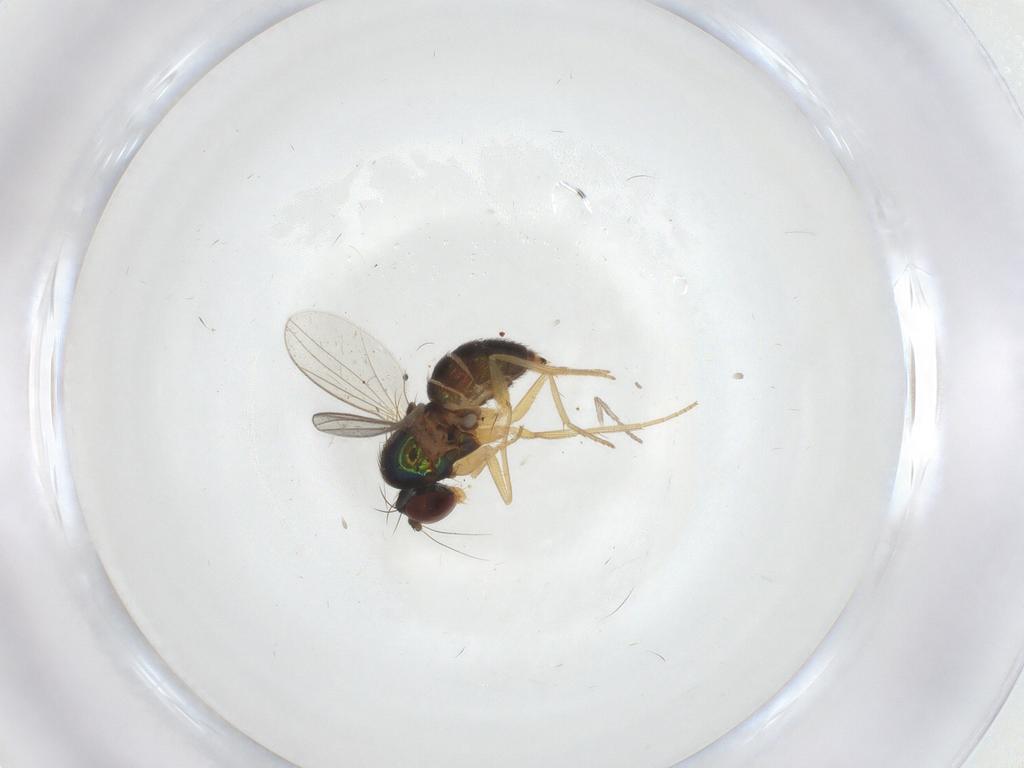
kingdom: Animalia
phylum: Arthropoda
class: Insecta
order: Diptera
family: Psychodidae
